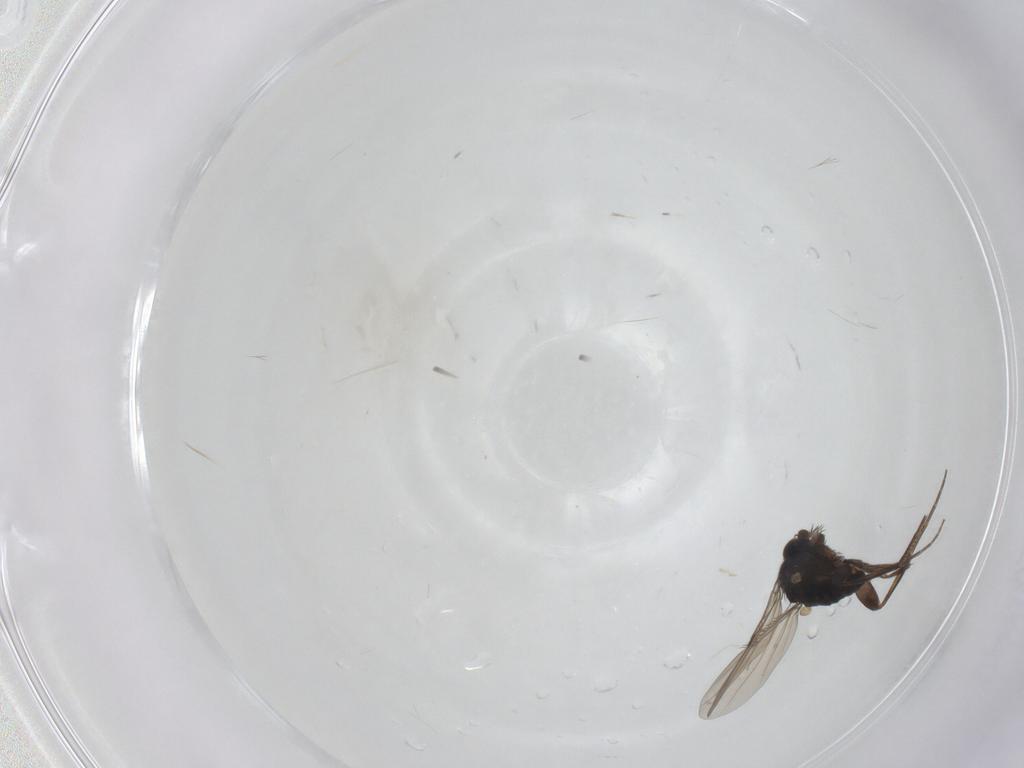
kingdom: Animalia
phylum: Arthropoda
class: Insecta
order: Diptera
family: Phoridae
